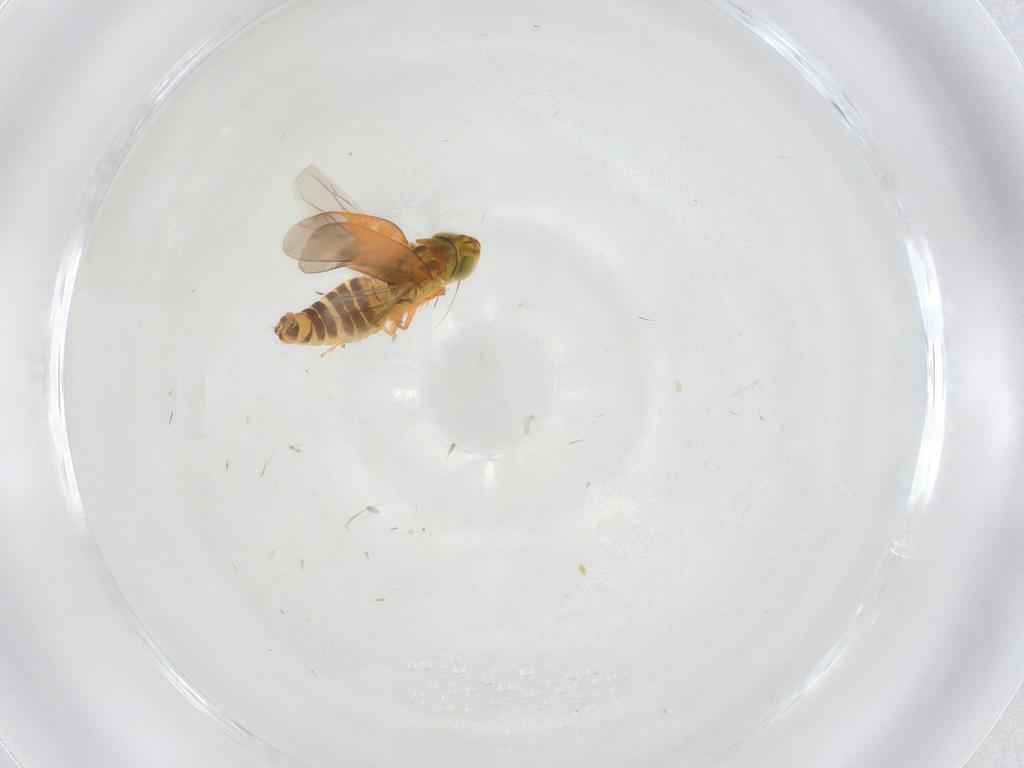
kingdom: Animalia
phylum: Arthropoda
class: Insecta
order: Hemiptera
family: Cicadellidae
